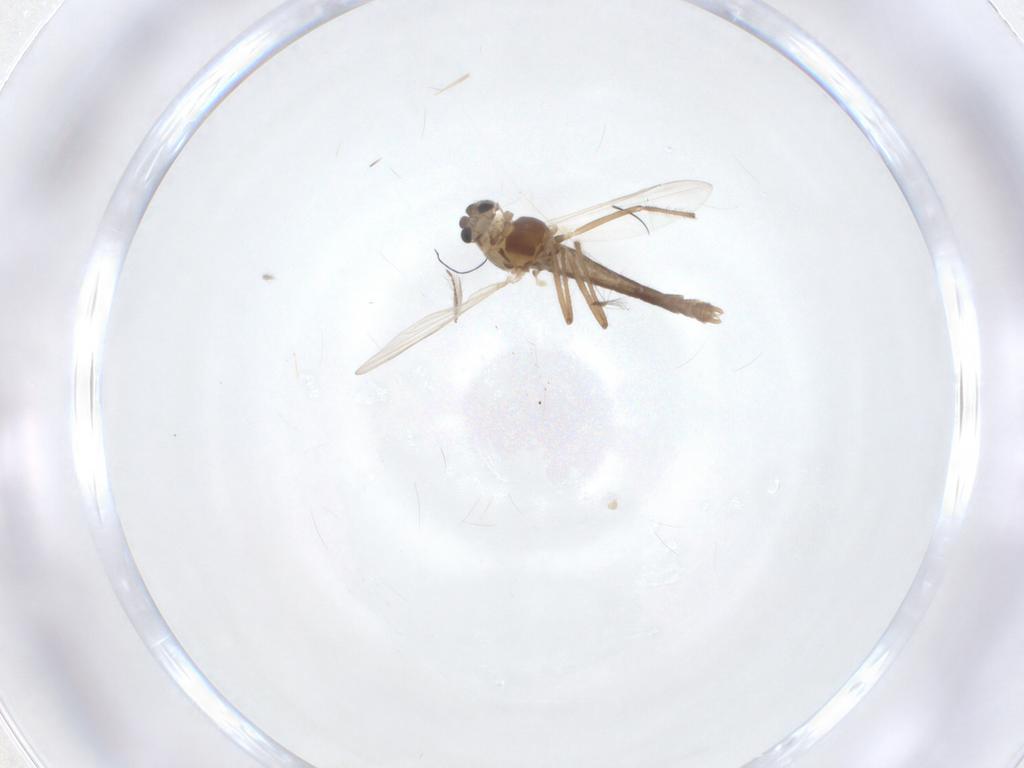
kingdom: Animalia
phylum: Arthropoda
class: Insecta
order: Diptera
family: Chironomidae
